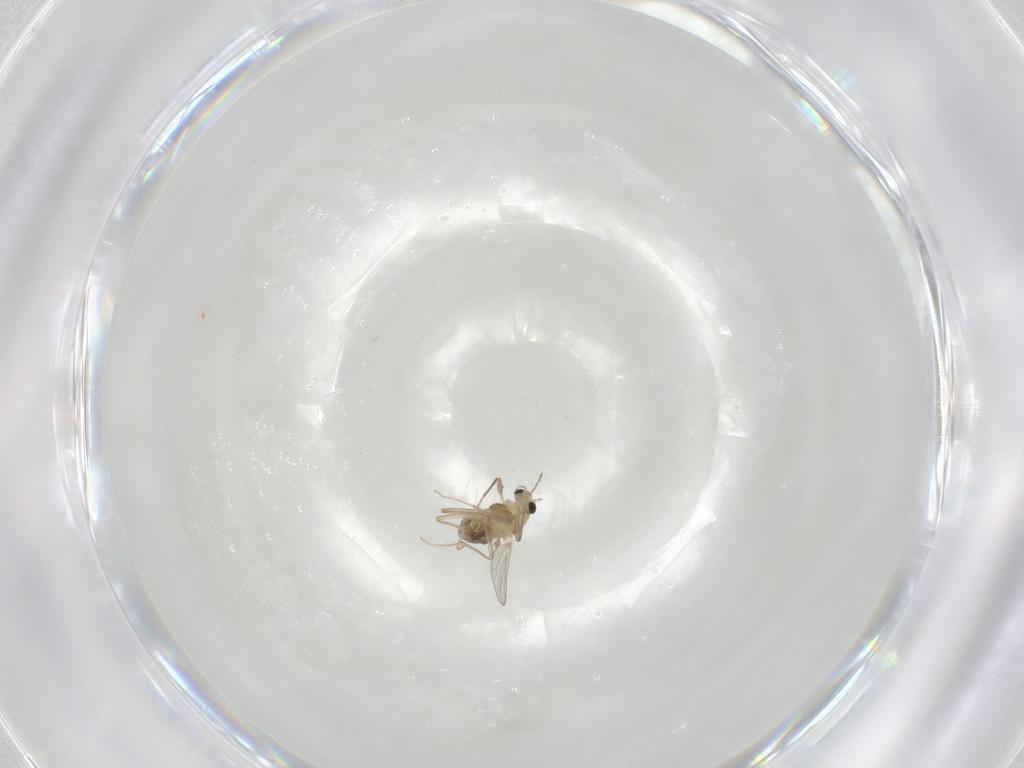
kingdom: Animalia
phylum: Arthropoda
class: Insecta
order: Diptera
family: Chironomidae
